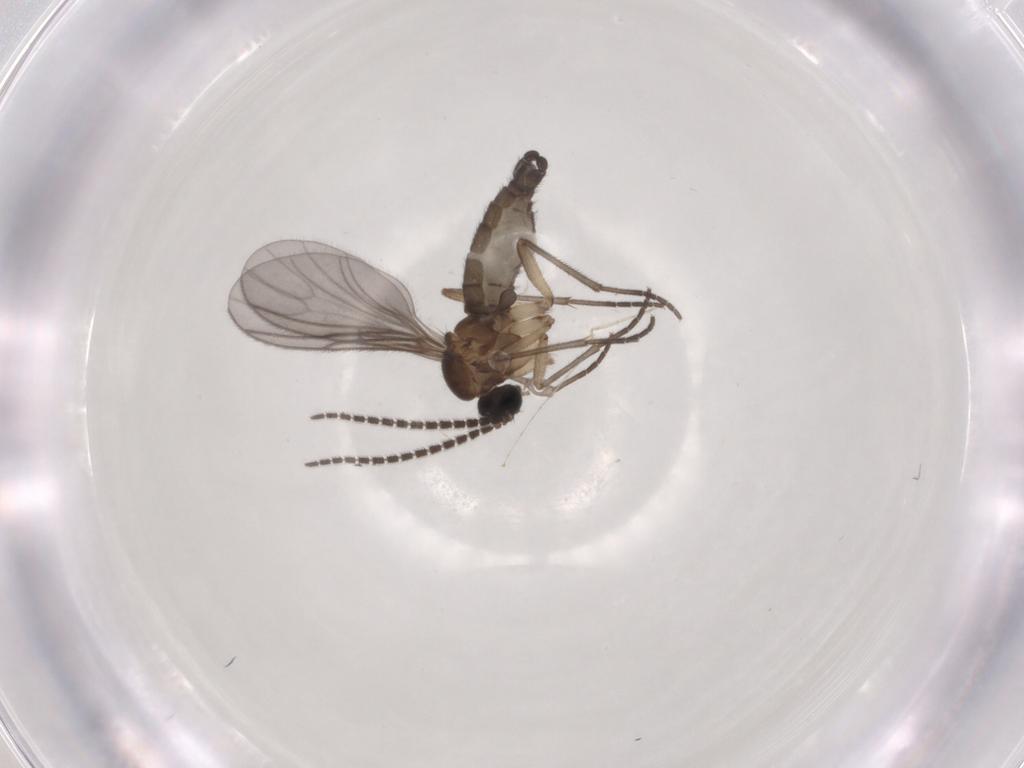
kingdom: Animalia
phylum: Arthropoda
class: Insecta
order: Diptera
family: Sciaridae
